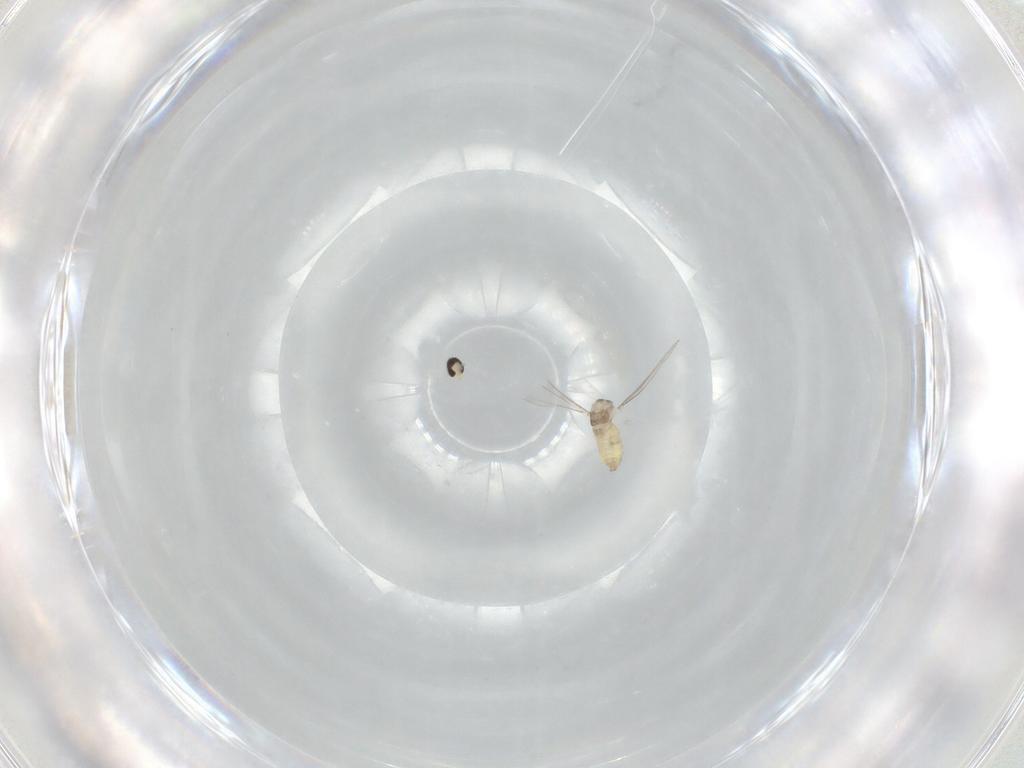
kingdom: Animalia
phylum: Arthropoda
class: Insecta
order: Diptera
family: Cecidomyiidae
